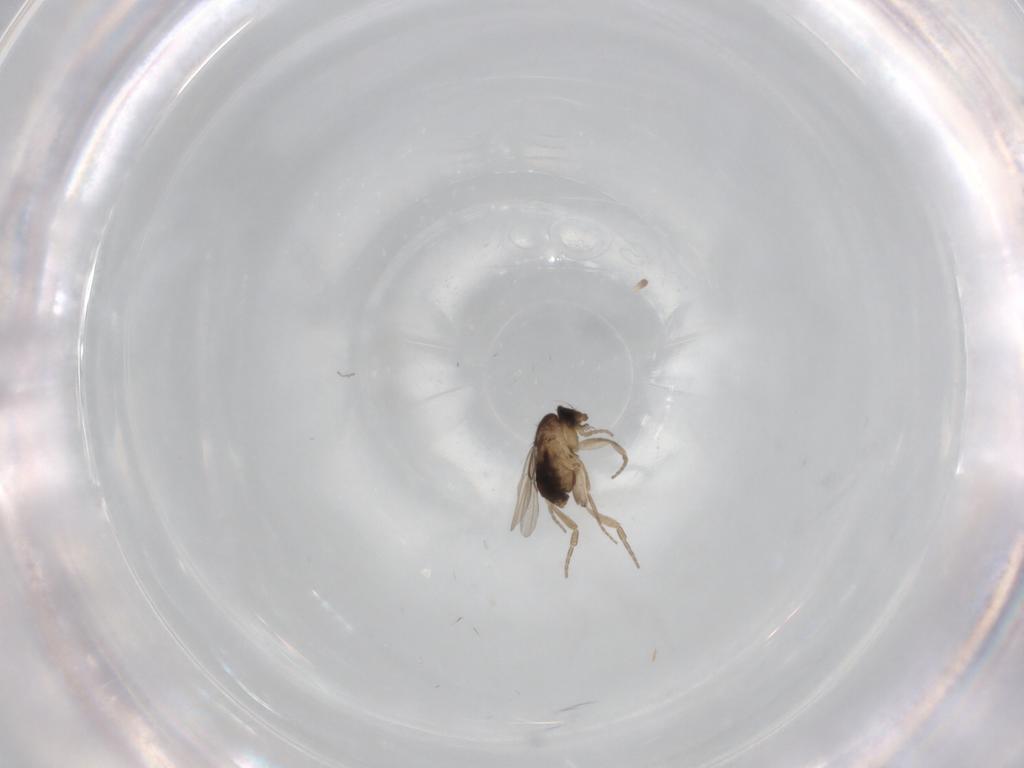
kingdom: Animalia
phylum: Arthropoda
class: Insecta
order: Diptera
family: Phoridae
